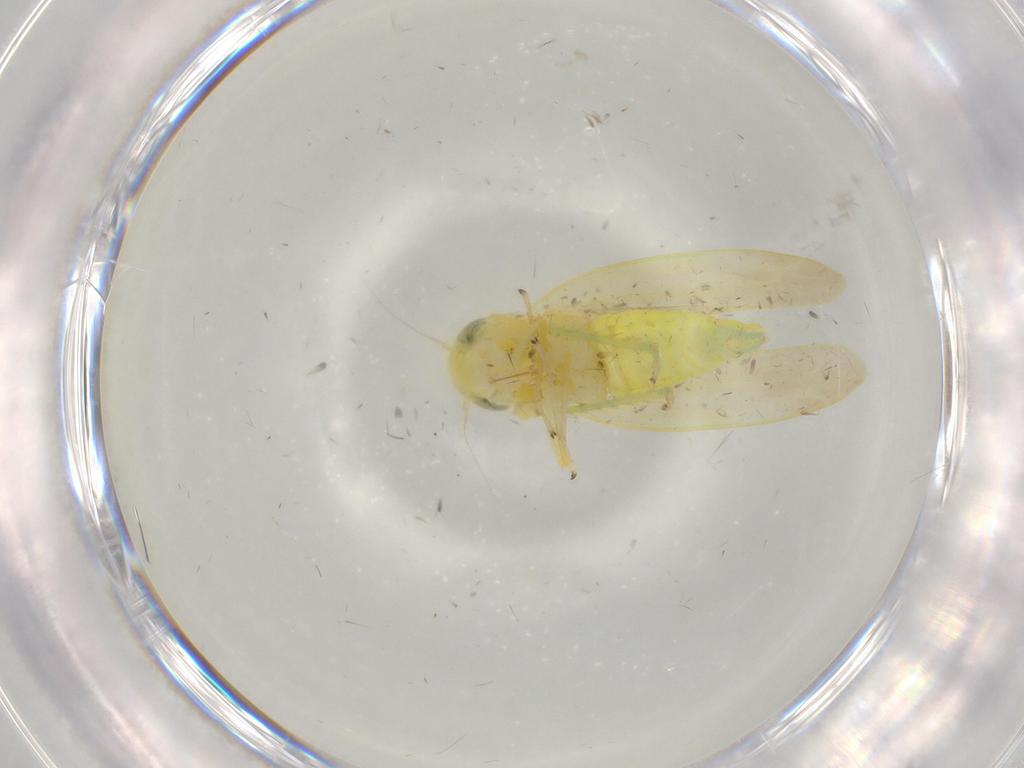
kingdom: Animalia
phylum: Arthropoda
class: Insecta
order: Hemiptera
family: Cicadellidae
